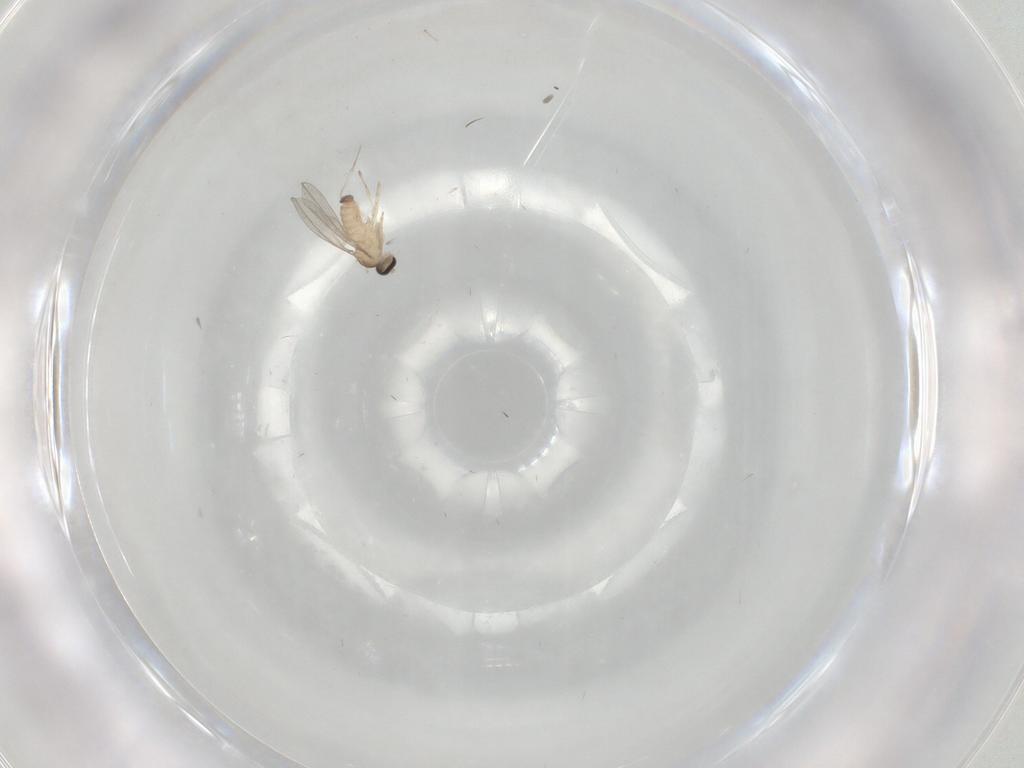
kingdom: Animalia
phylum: Arthropoda
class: Insecta
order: Diptera
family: Cecidomyiidae
